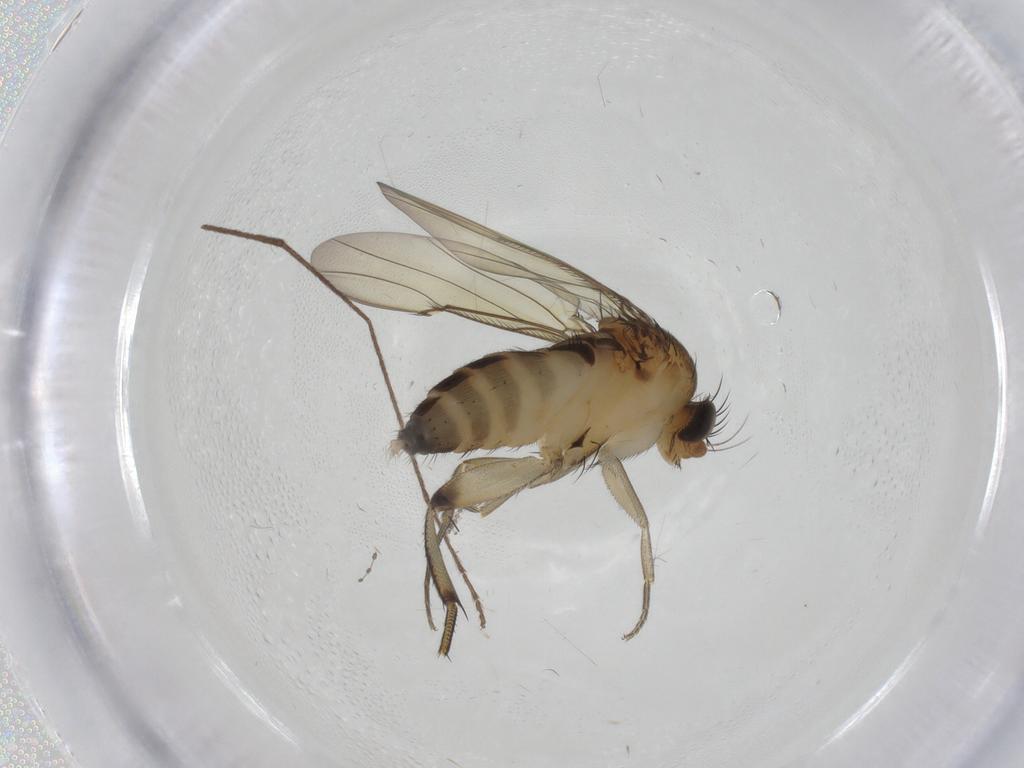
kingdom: Animalia
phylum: Arthropoda
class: Insecta
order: Diptera
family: Phoridae
